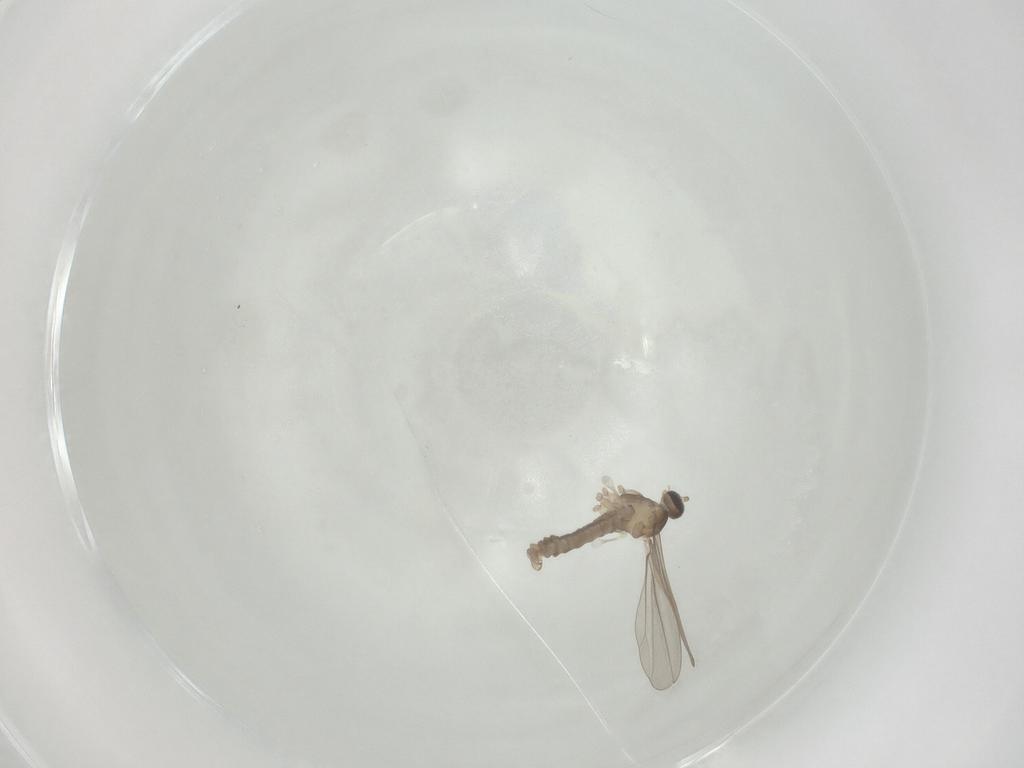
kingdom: Animalia
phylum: Arthropoda
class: Insecta
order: Diptera
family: Cecidomyiidae
